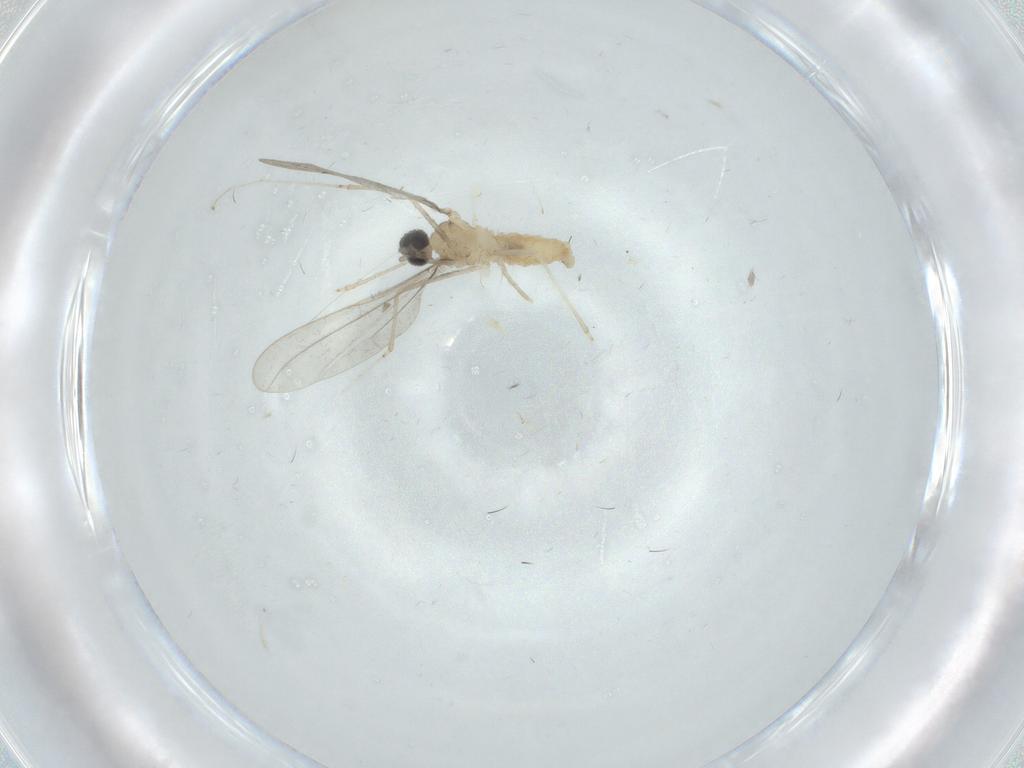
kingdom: Animalia
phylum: Arthropoda
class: Insecta
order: Diptera
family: Cecidomyiidae
